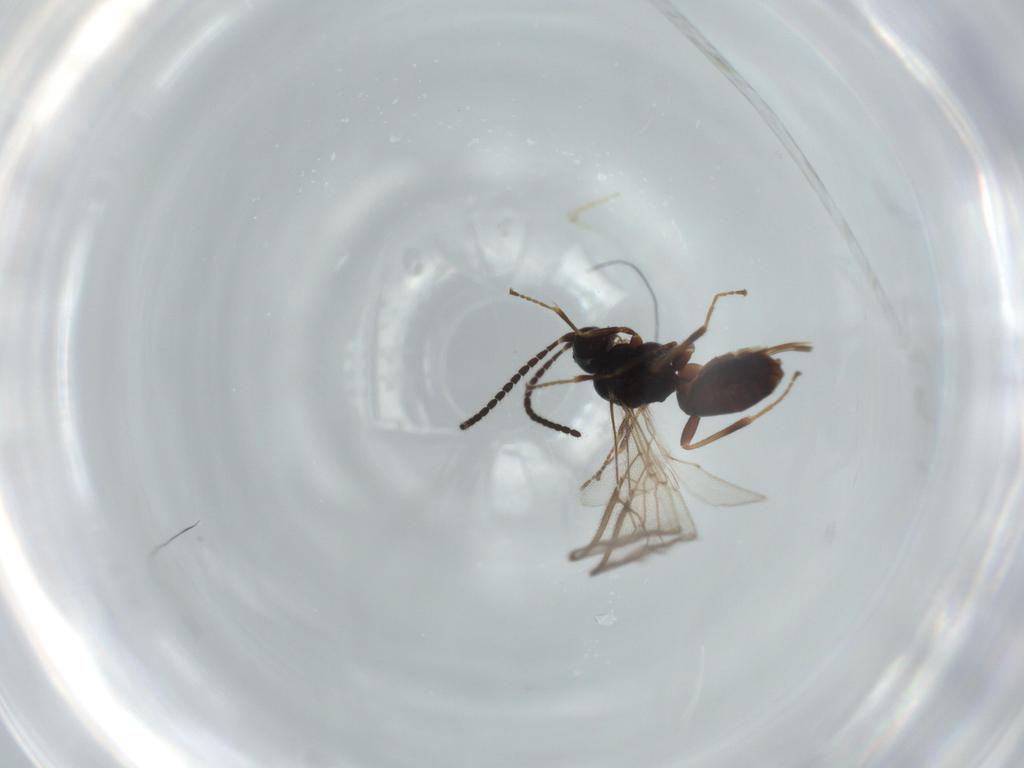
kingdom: Animalia
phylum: Arthropoda
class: Insecta
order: Hymenoptera
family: Braconidae
